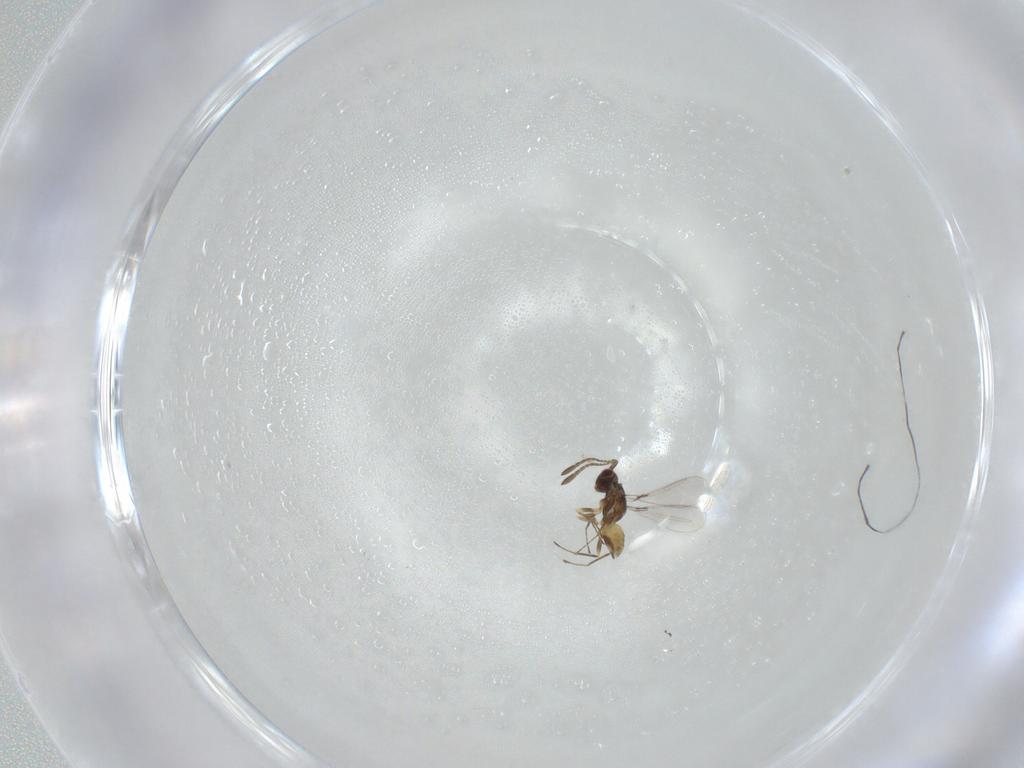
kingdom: Animalia
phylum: Arthropoda
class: Insecta
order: Hymenoptera
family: Mymaridae
